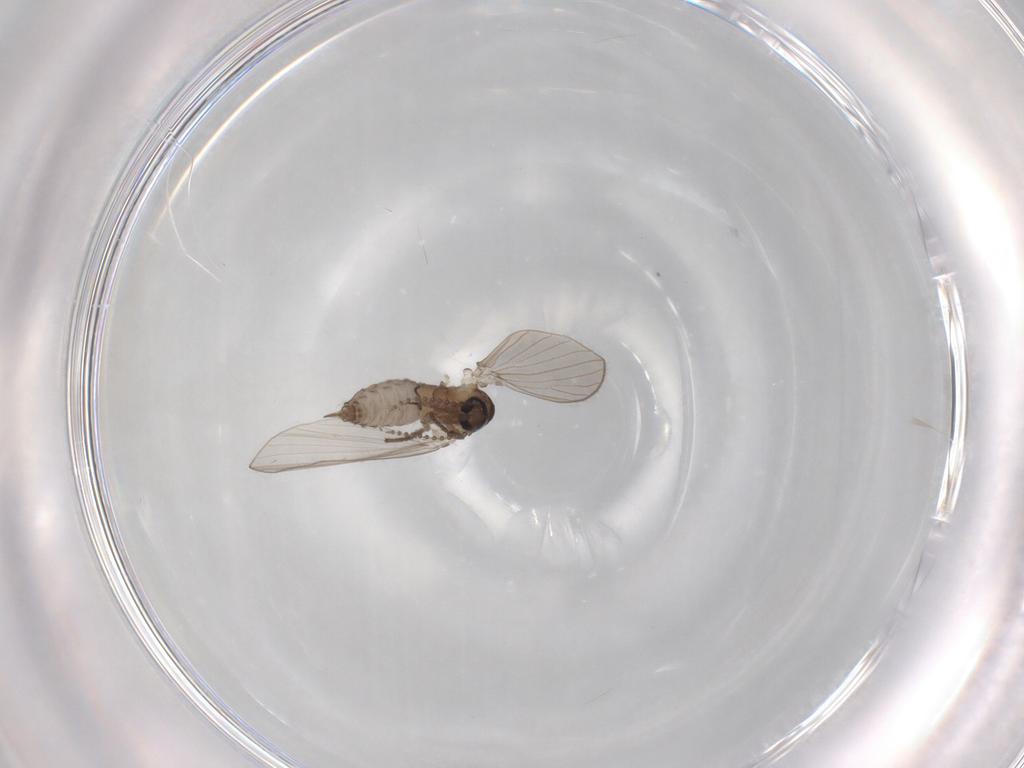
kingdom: Animalia
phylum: Arthropoda
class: Insecta
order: Diptera
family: Psychodidae
